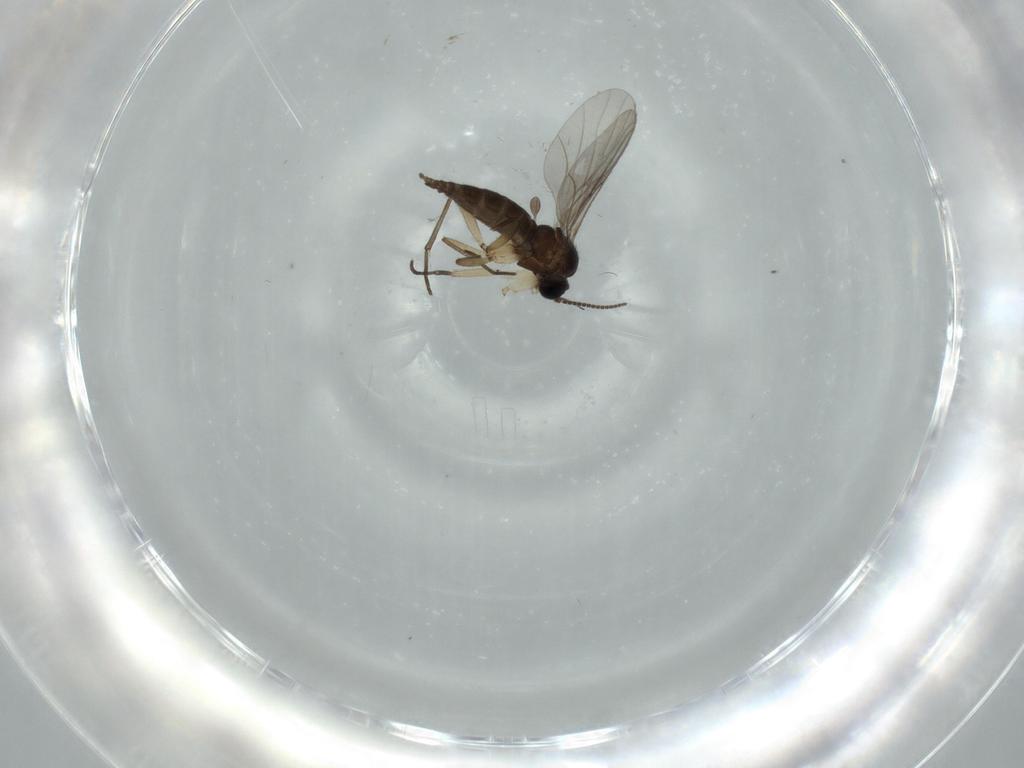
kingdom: Animalia
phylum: Arthropoda
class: Insecta
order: Diptera
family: Sciaridae
